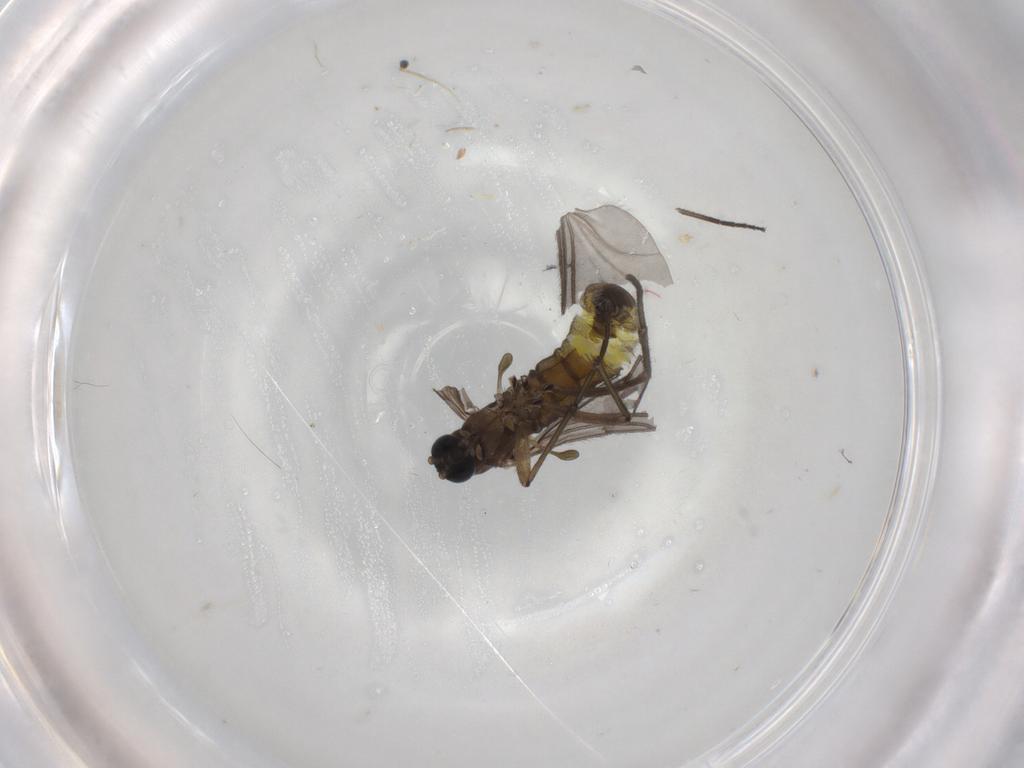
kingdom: Animalia
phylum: Arthropoda
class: Insecta
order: Diptera
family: Sciaridae
